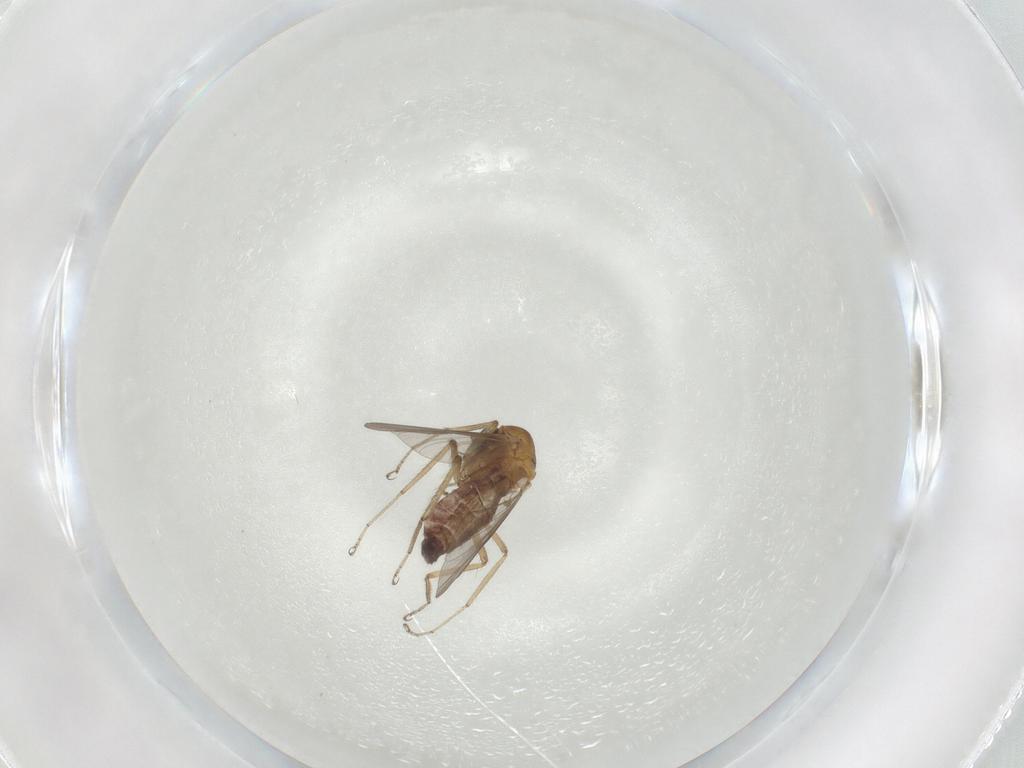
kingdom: Animalia
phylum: Arthropoda
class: Insecta
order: Diptera
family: Ceratopogonidae
